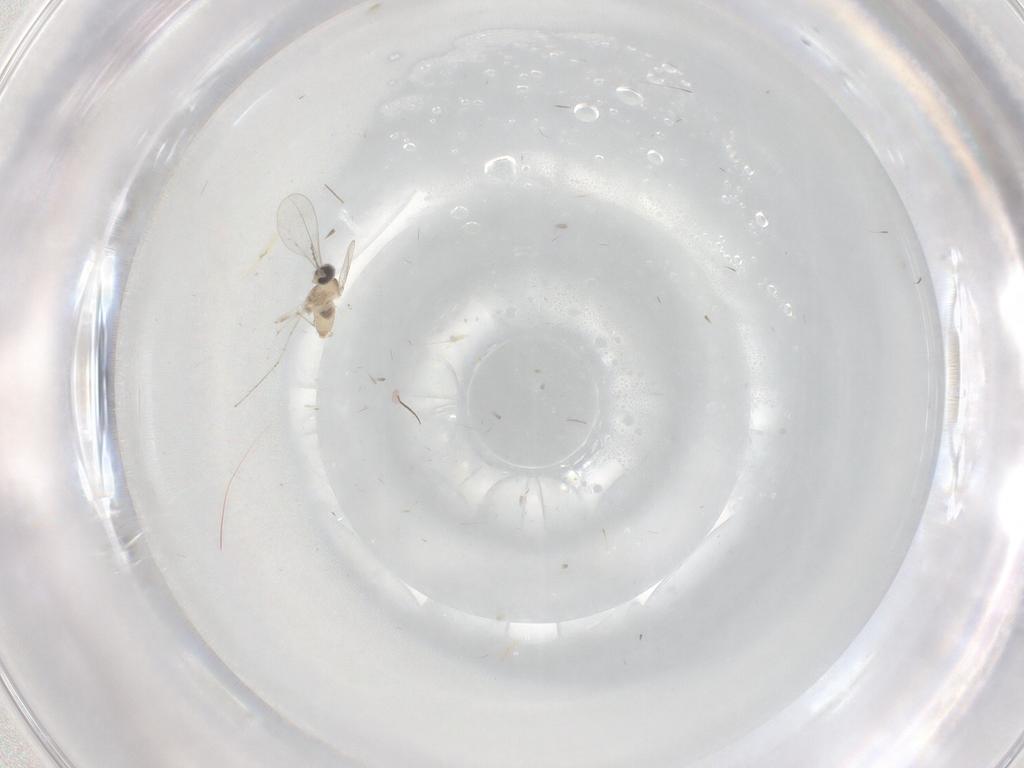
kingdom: Animalia
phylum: Arthropoda
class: Insecta
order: Diptera
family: Cecidomyiidae
